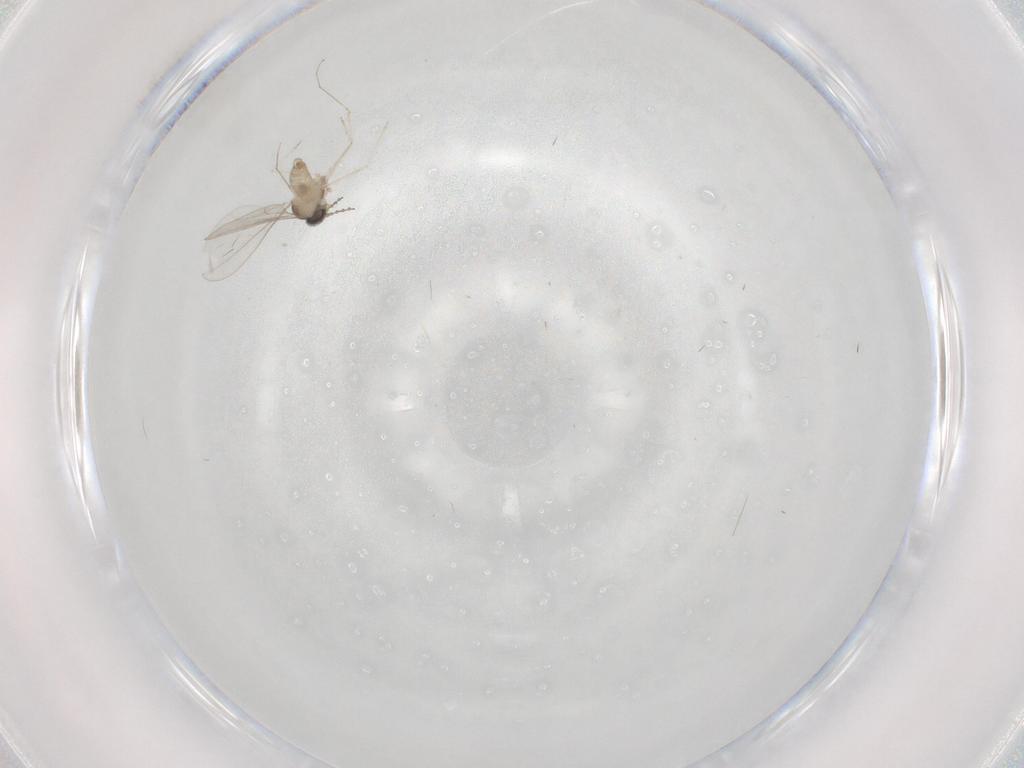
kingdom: Animalia
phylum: Arthropoda
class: Insecta
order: Diptera
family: Cecidomyiidae
